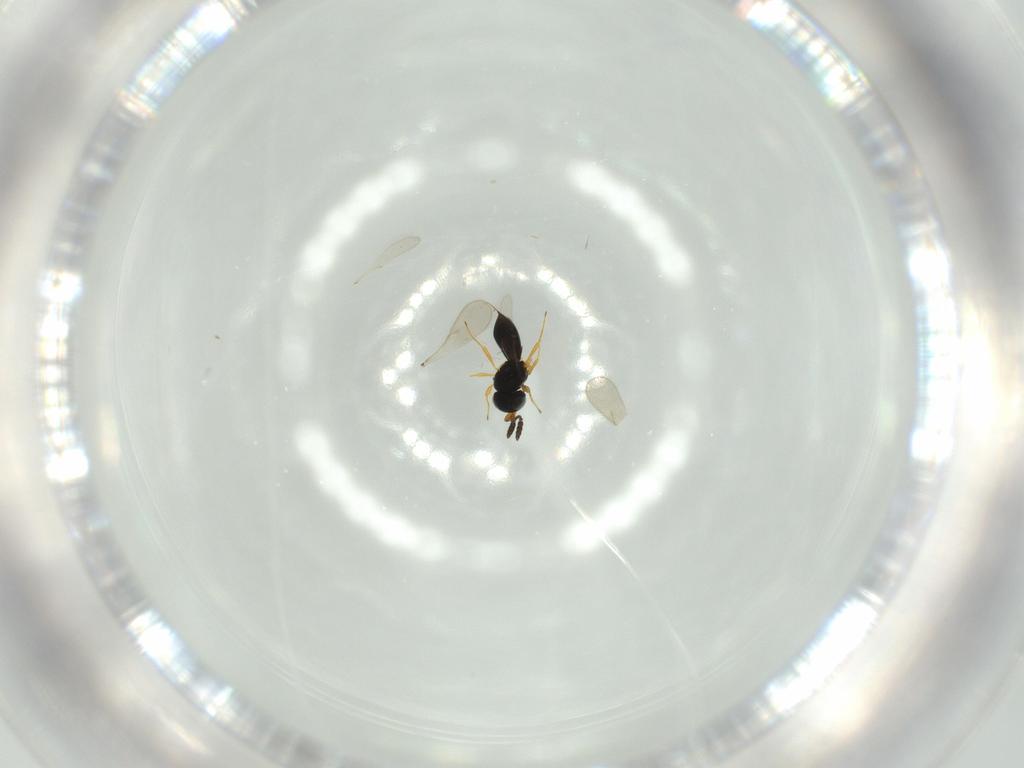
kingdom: Animalia
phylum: Arthropoda
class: Insecta
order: Hymenoptera
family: Scelionidae
